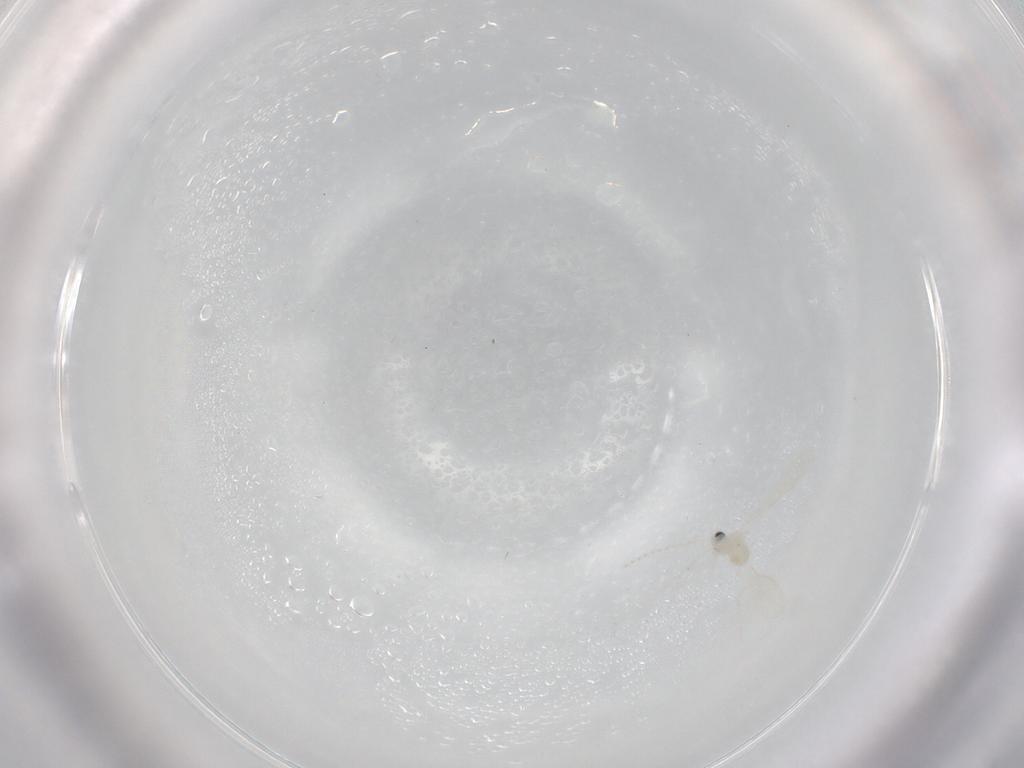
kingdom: Animalia
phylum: Arthropoda
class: Insecta
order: Diptera
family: Cecidomyiidae
